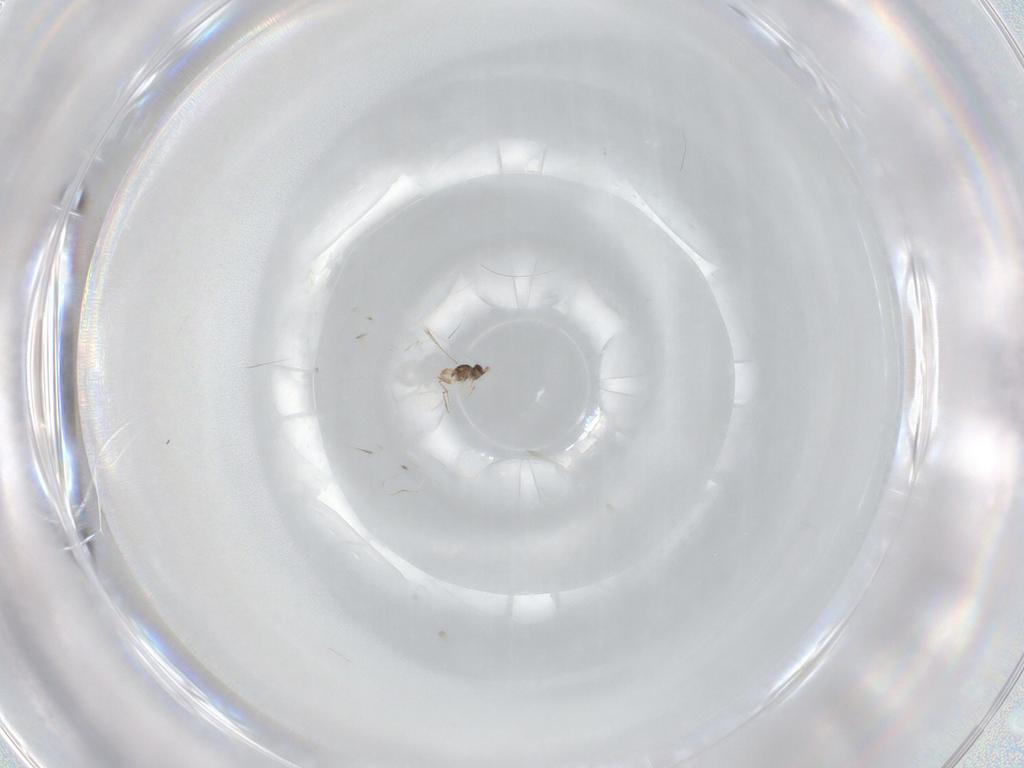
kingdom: Animalia
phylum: Arthropoda
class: Insecta
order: Hymenoptera
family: Mymaridae
